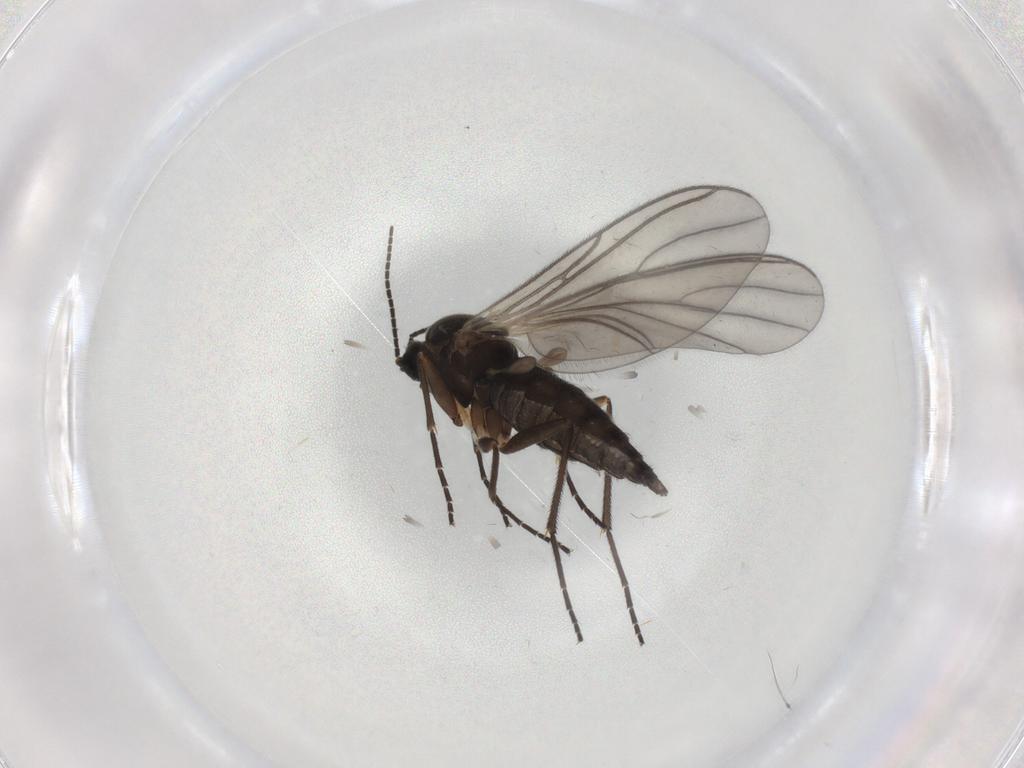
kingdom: Animalia
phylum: Arthropoda
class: Insecta
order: Diptera
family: Sciaridae
